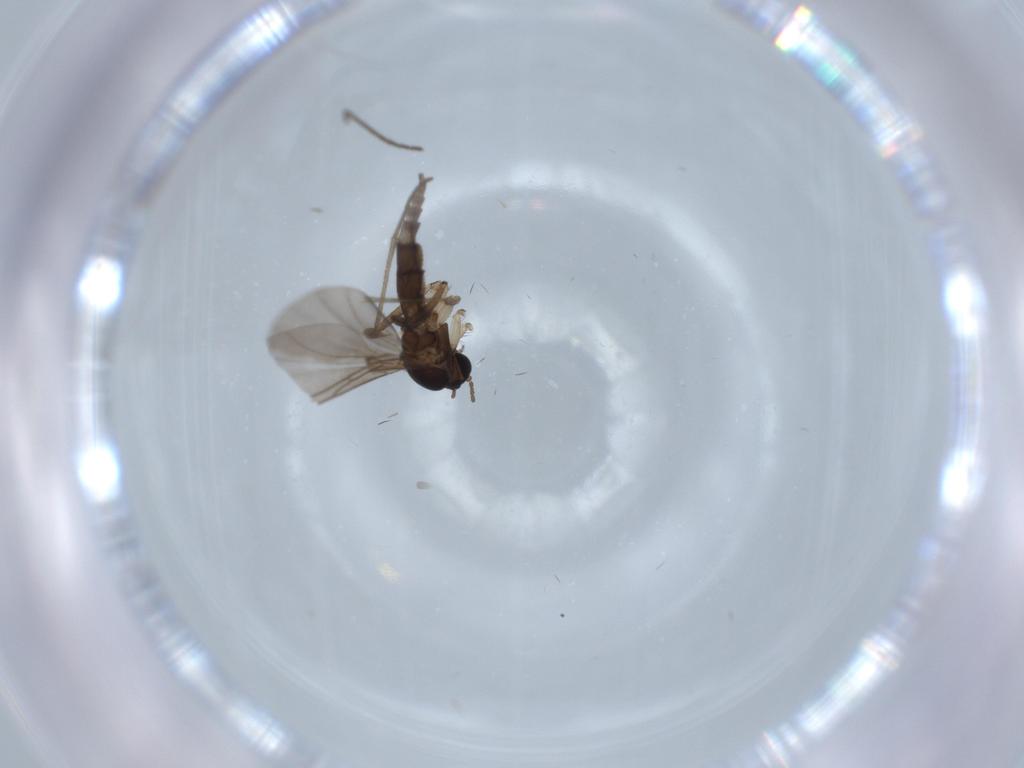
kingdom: Animalia
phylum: Arthropoda
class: Insecta
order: Diptera
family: Sciaridae
